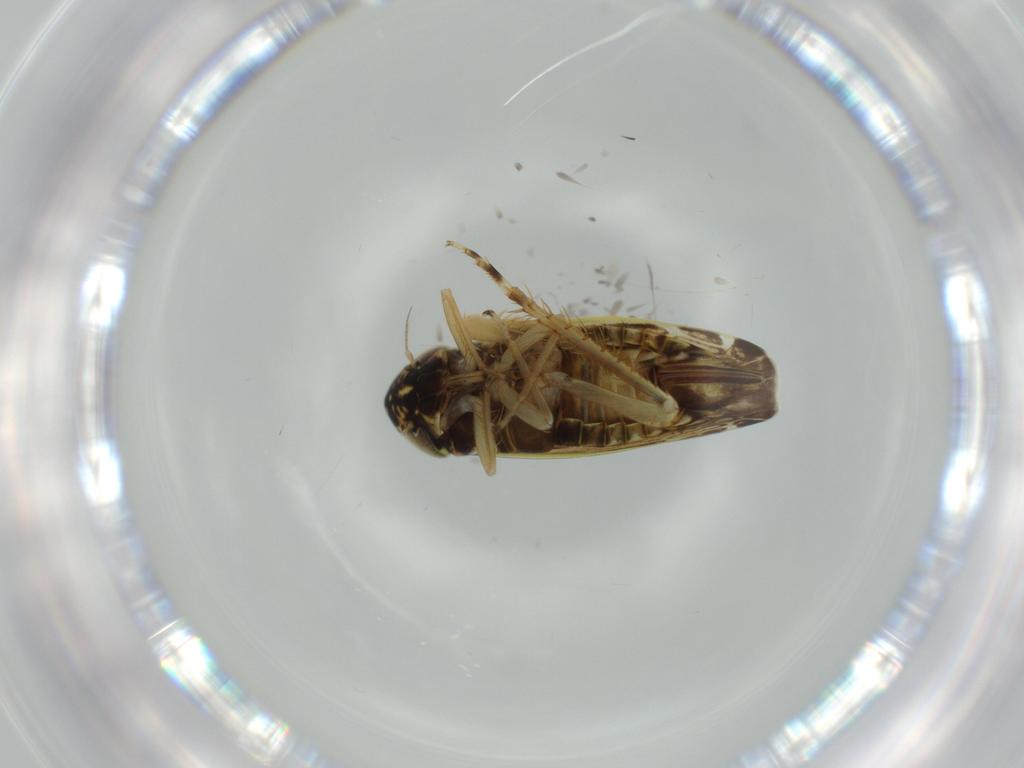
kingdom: Animalia
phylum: Arthropoda
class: Insecta
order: Hemiptera
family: Cicadellidae
